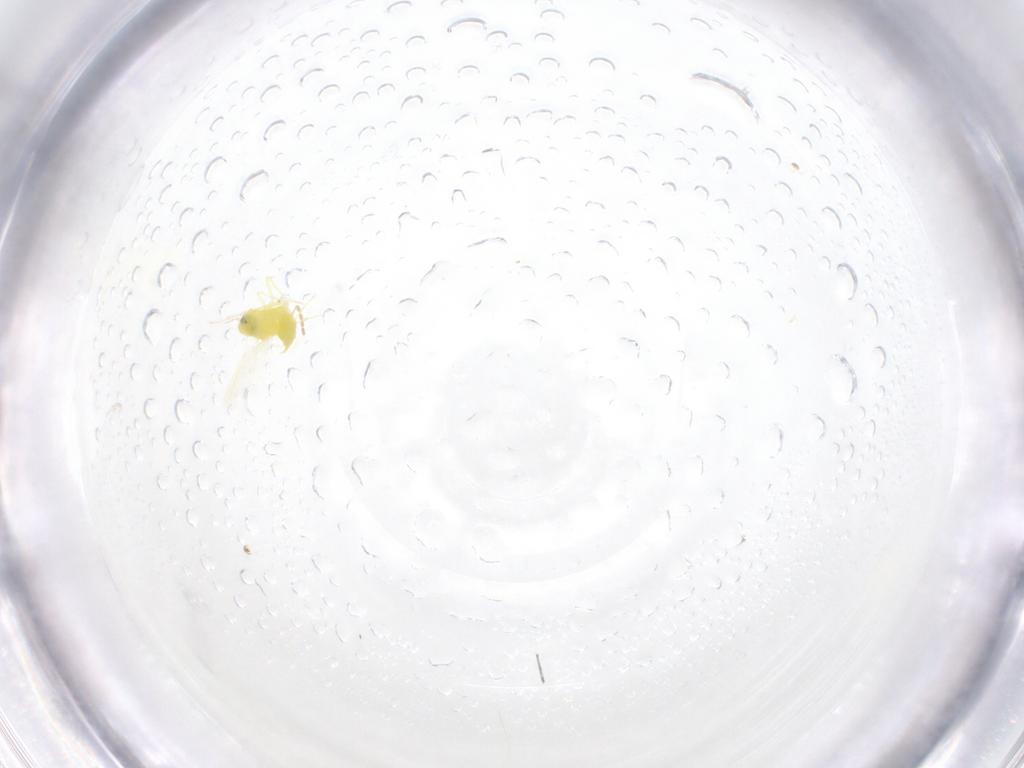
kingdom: Animalia
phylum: Arthropoda
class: Insecta
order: Hemiptera
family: Aleyrodidae
